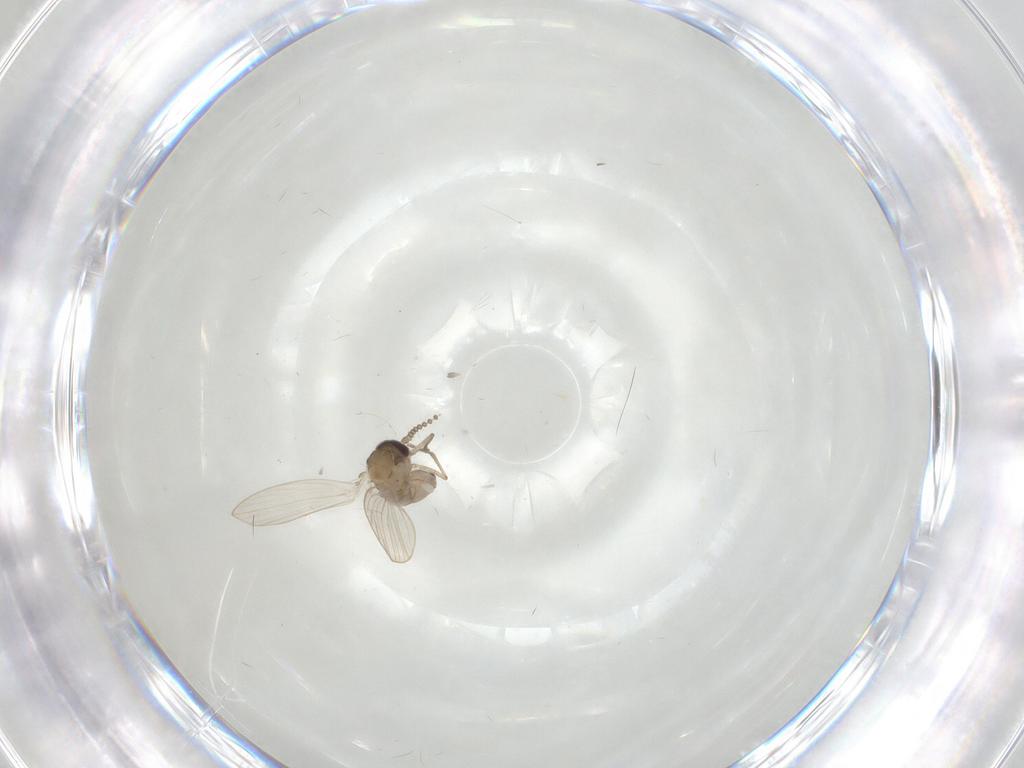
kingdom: Animalia
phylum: Arthropoda
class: Insecta
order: Diptera
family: Psychodidae
